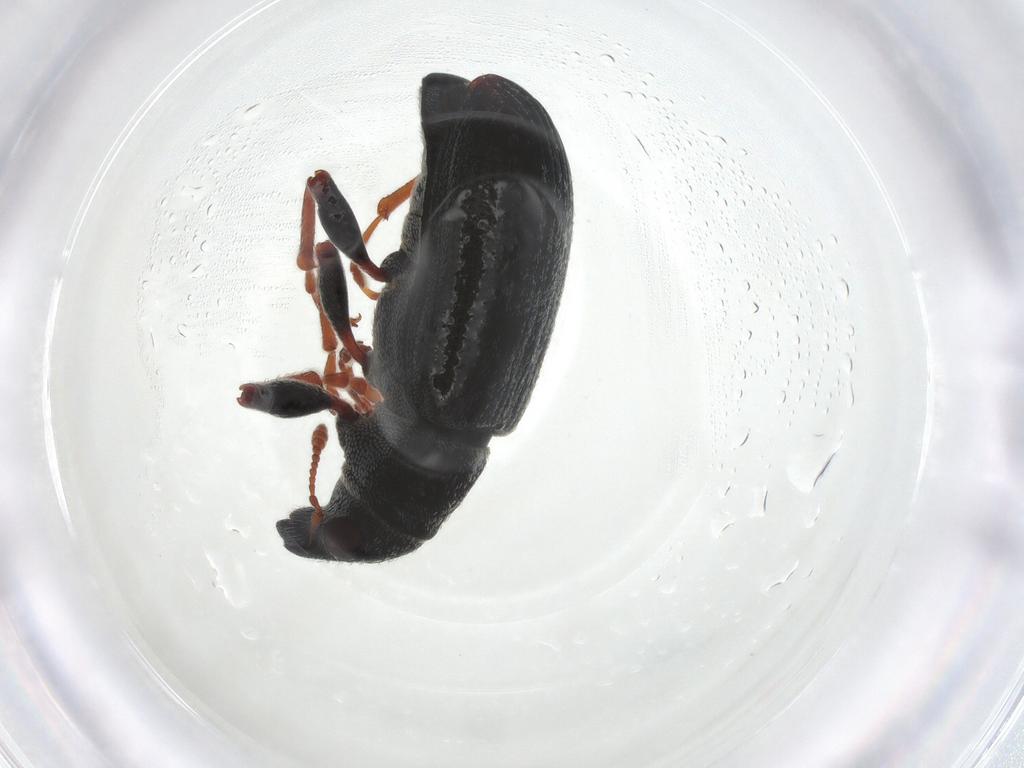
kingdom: Animalia
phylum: Arthropoda
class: Insecta
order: Coleoptera
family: Curculionidae
